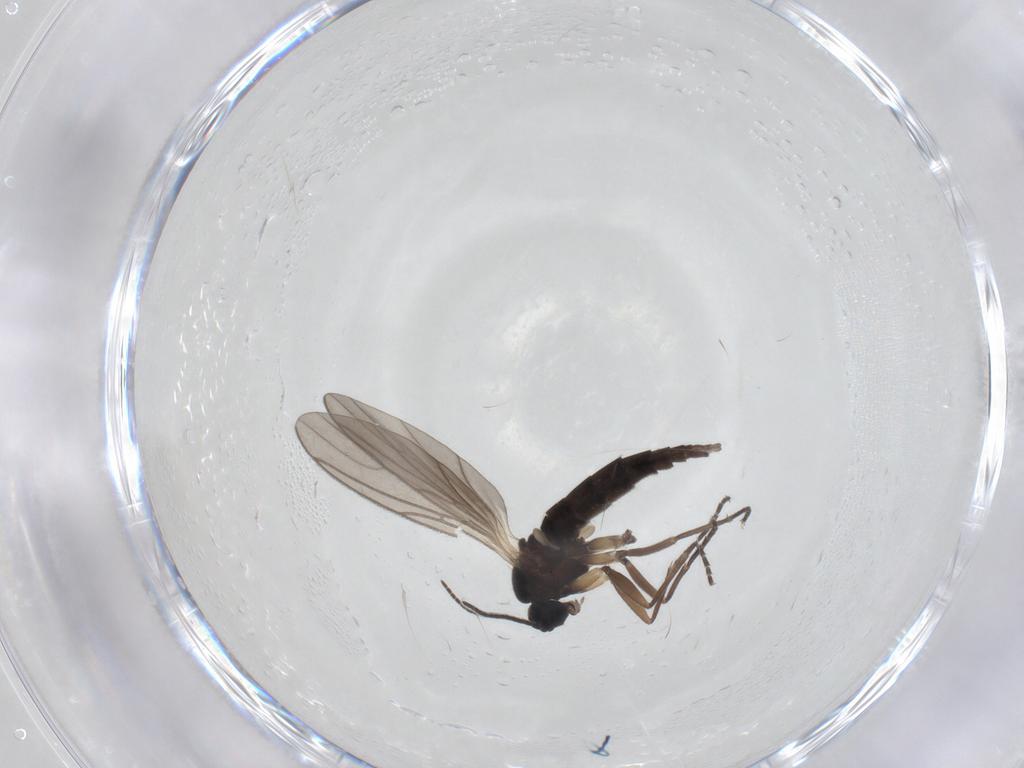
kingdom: Animalia
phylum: Arthropoda
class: Insecta
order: Diptera
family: Sciaridae
